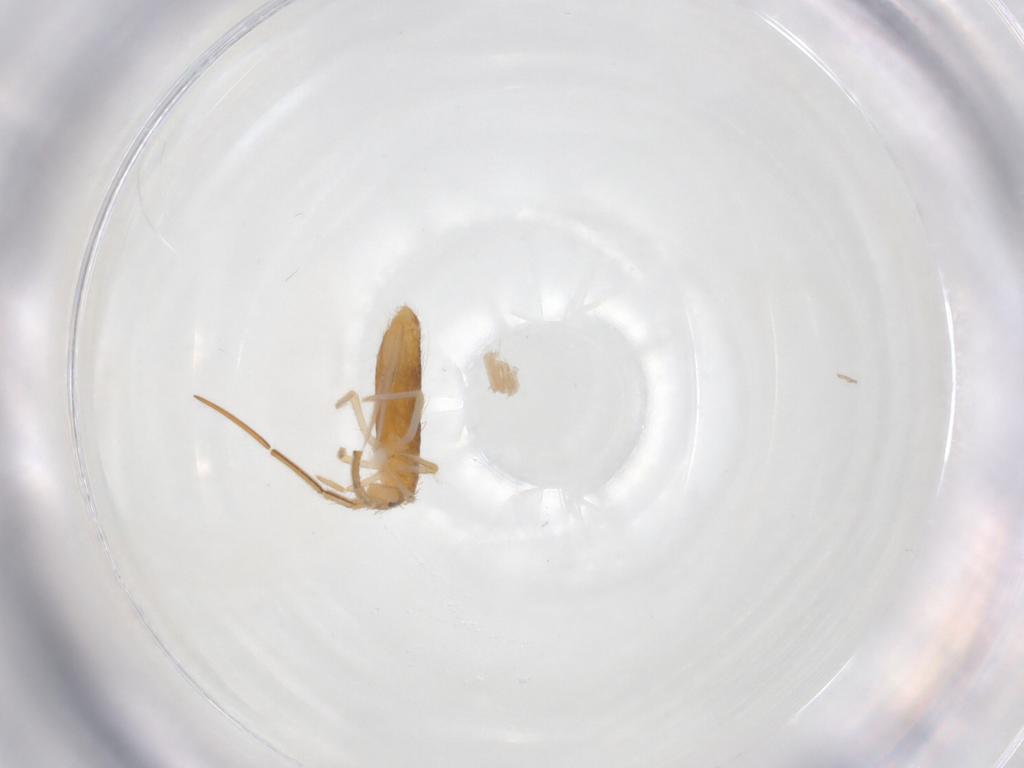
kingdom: Animalia
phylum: Arthropoda
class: Collembola
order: Entomobryomorpha
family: Entomobryidae
